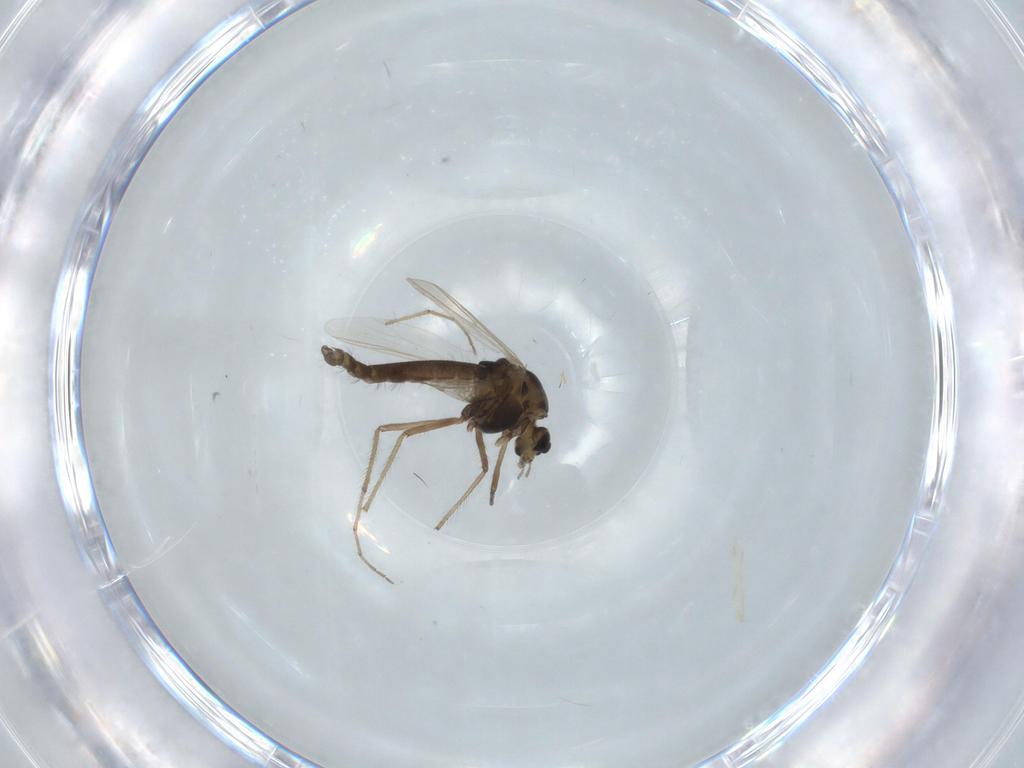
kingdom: Animalia
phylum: Arthropoda
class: Insecta
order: Diptera
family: Chironomidae
